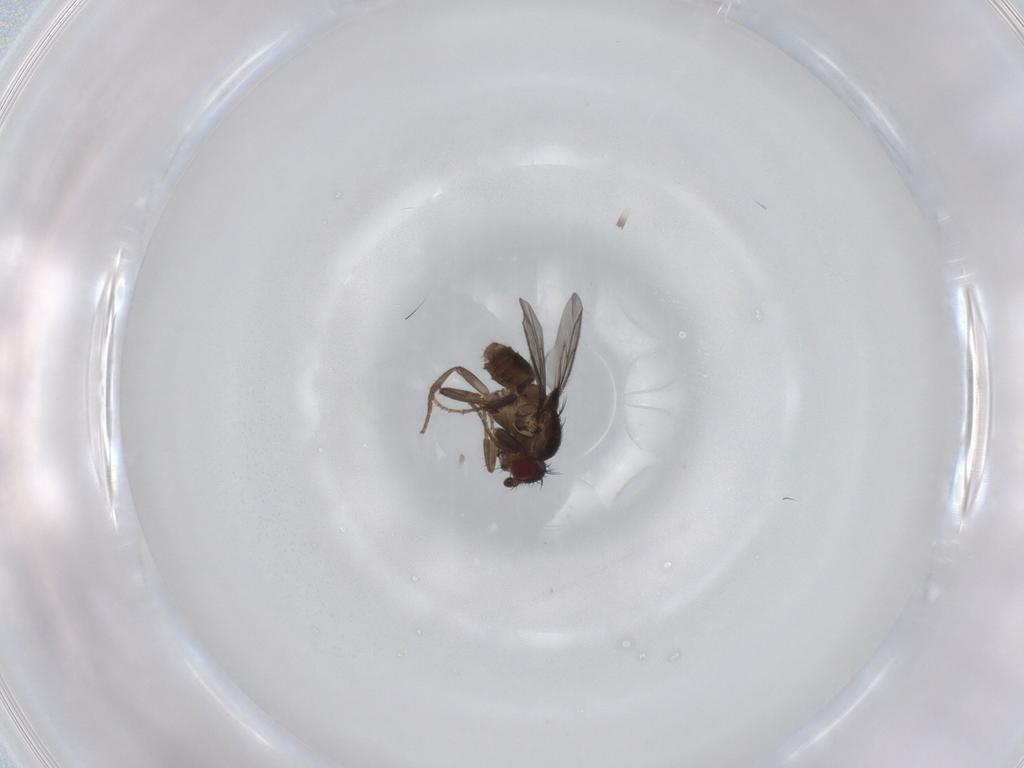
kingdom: Animalia
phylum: Arthropoda
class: Insecta
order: Diptera
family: Sphaeroceridae
